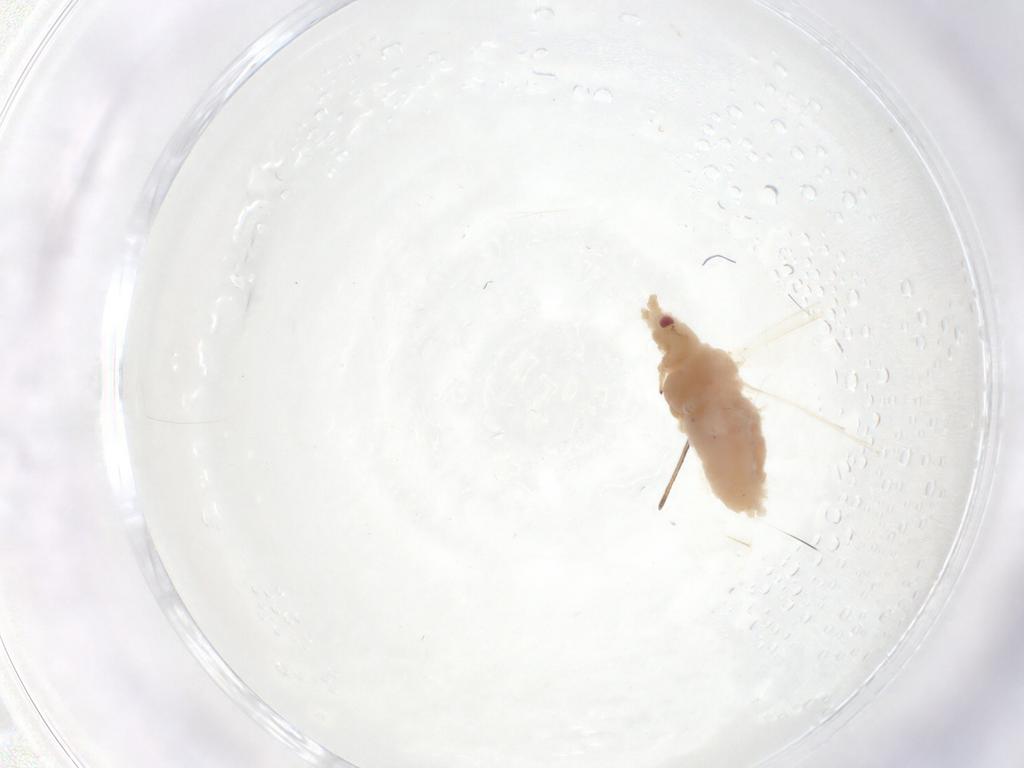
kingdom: Animalia
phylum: Arthropoda
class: Insecta
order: Hemiptera
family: Aphididae
